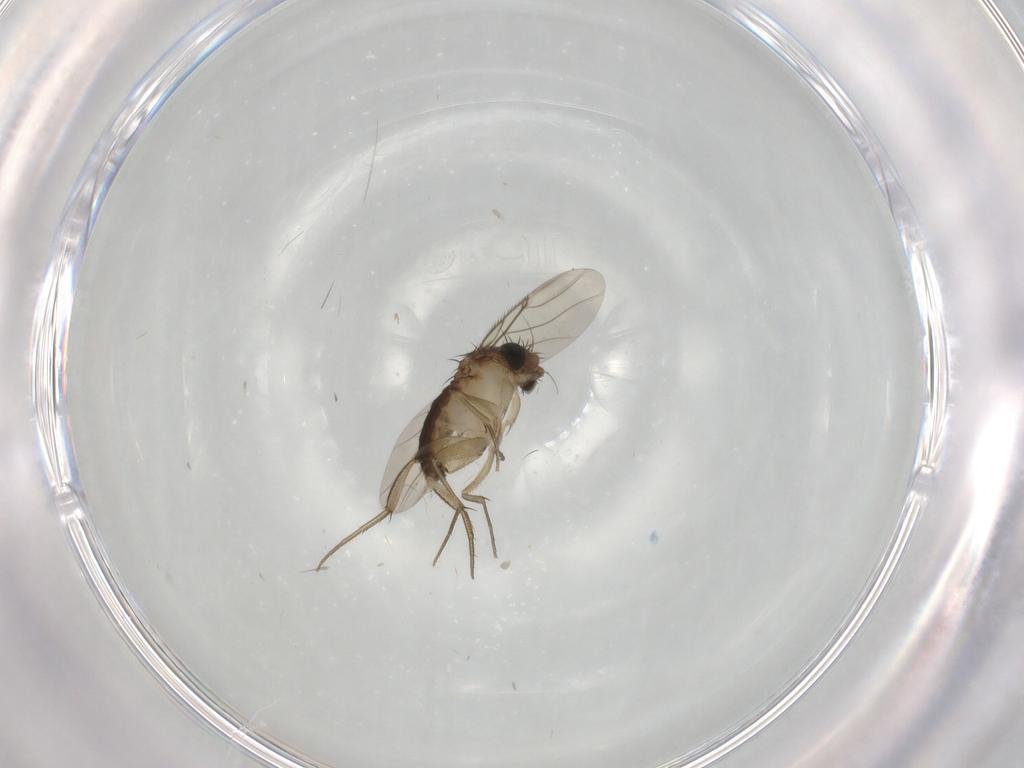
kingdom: Animalia
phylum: Arthropoda
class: Insecta
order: Diptera
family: Phoridae
